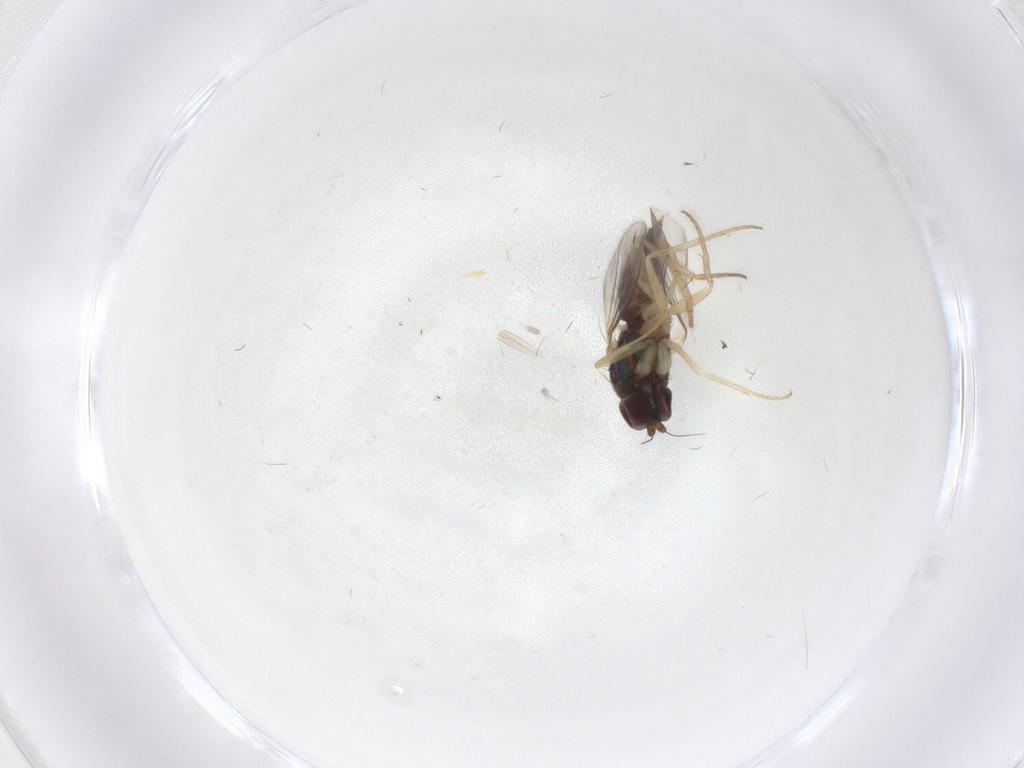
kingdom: Animalia
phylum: Arthropoda
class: Insecta
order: Diptera
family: Dolichopodidae
